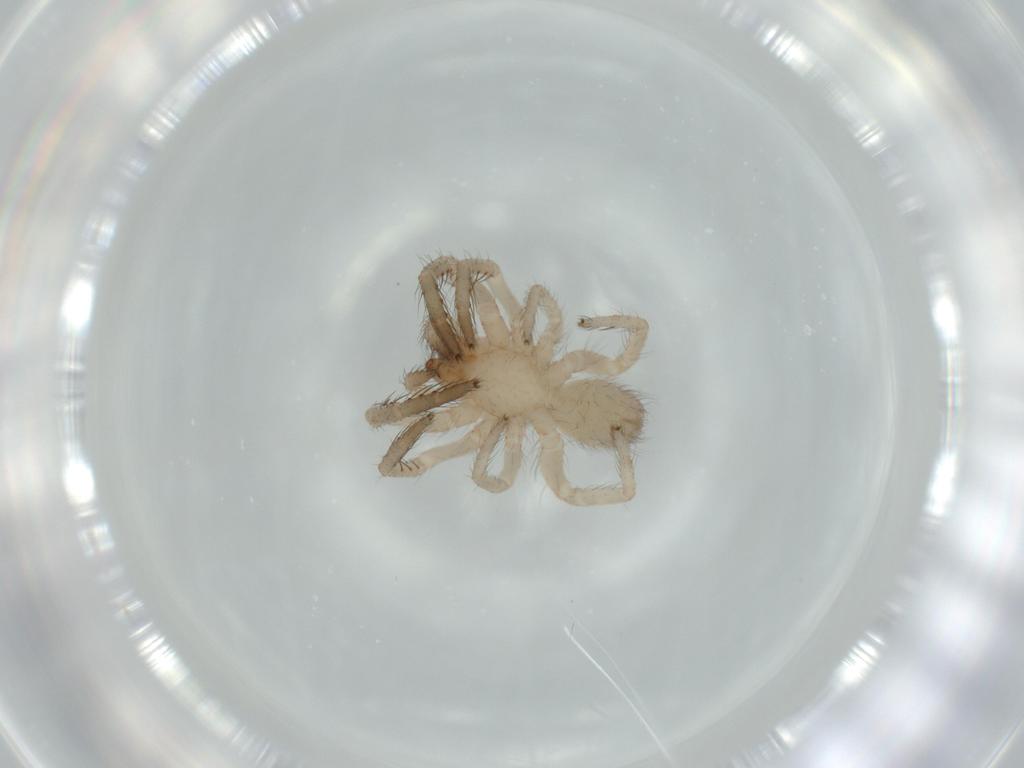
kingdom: Animalia
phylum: Arthropoda
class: Arachnida
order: Araneae
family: Segestriidae
